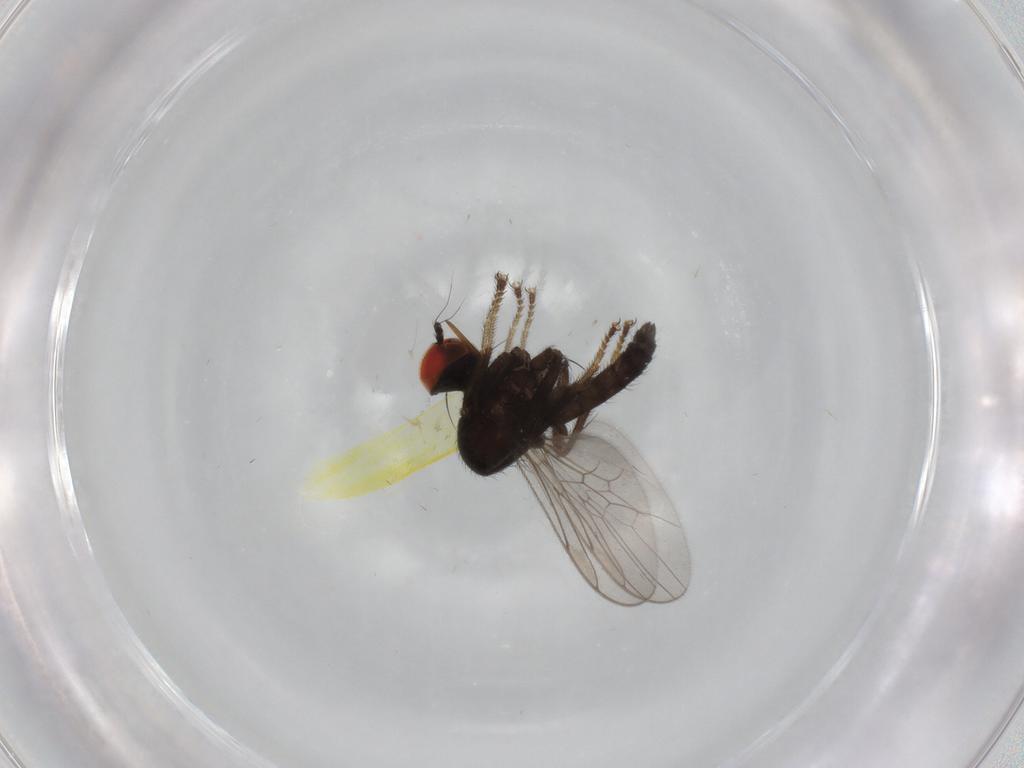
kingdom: Animalia
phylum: Arthropoda
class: Insecta
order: Diptera
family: Hybotidae
